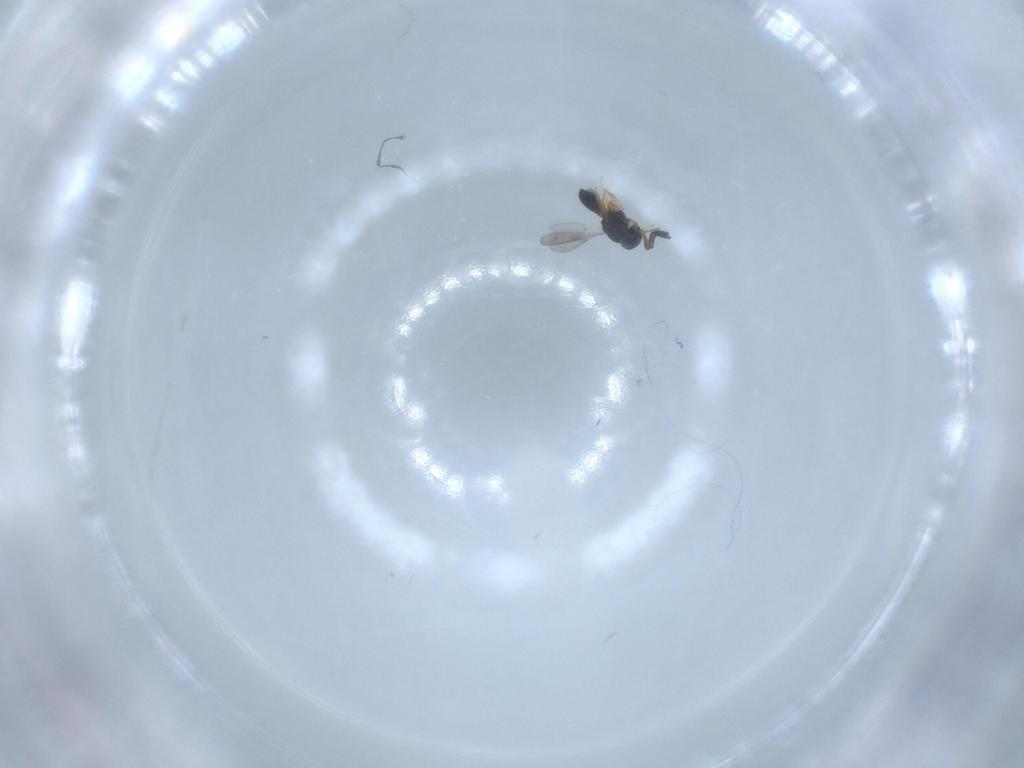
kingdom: Animalia
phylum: Arthropoda
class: Insecta
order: Hymenoptera
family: Scelionidae
